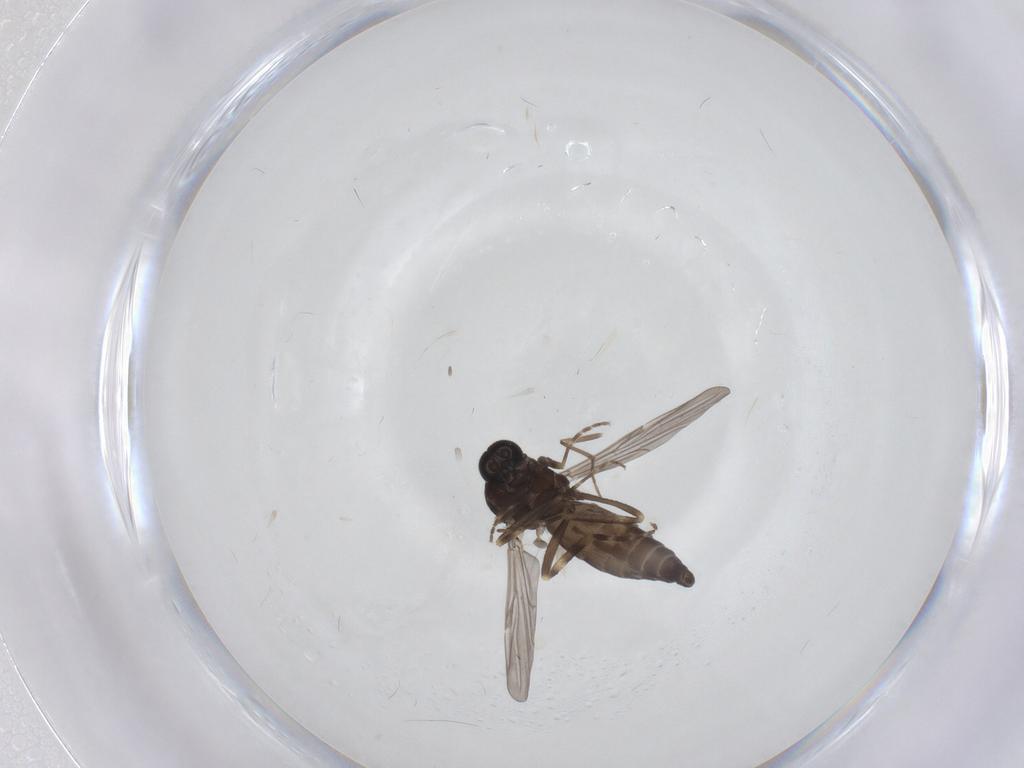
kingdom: Animalia
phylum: Arthropoda
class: Insecta
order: Diptera
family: Ceratopogonidae
